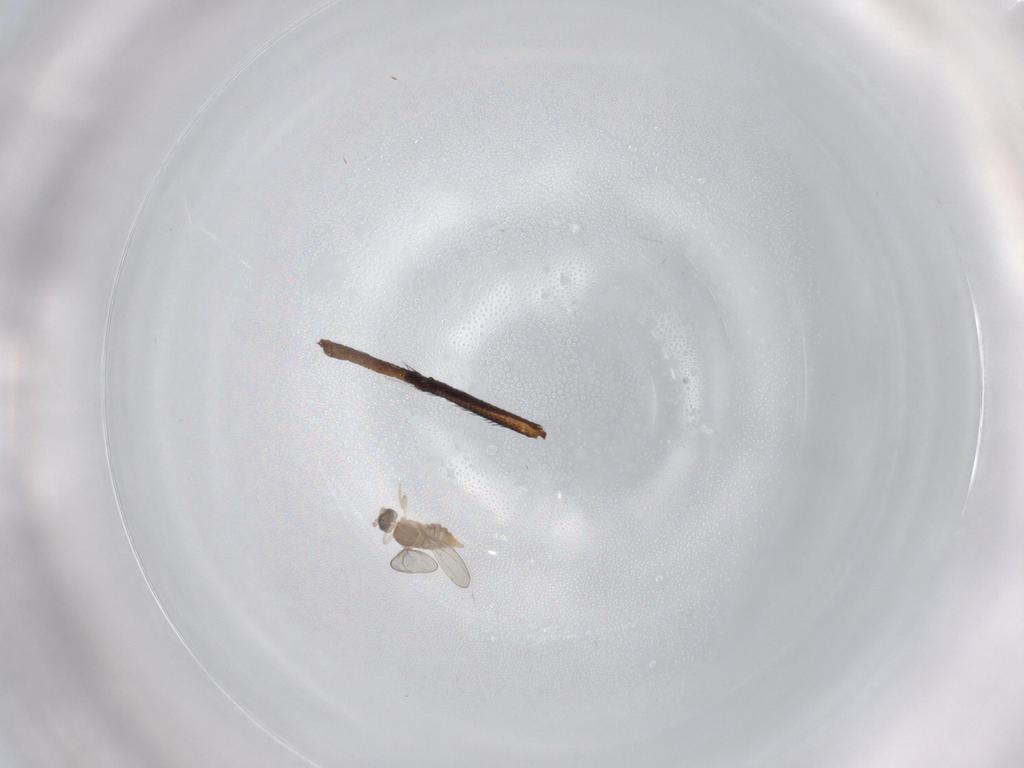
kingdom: Animalia
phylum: Arthropoda
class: Insecta
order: Diptera
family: Cecidomyiidae
